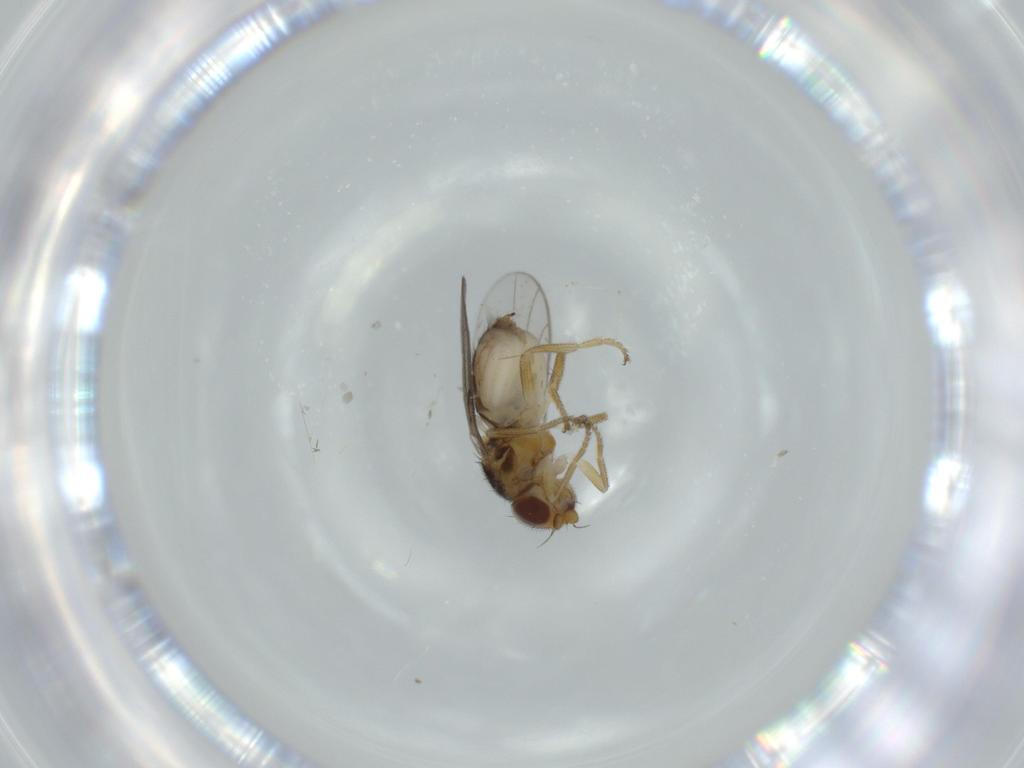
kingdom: Animalia
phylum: Arthropoda
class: Insecta
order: Diptera
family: Chloropidae
